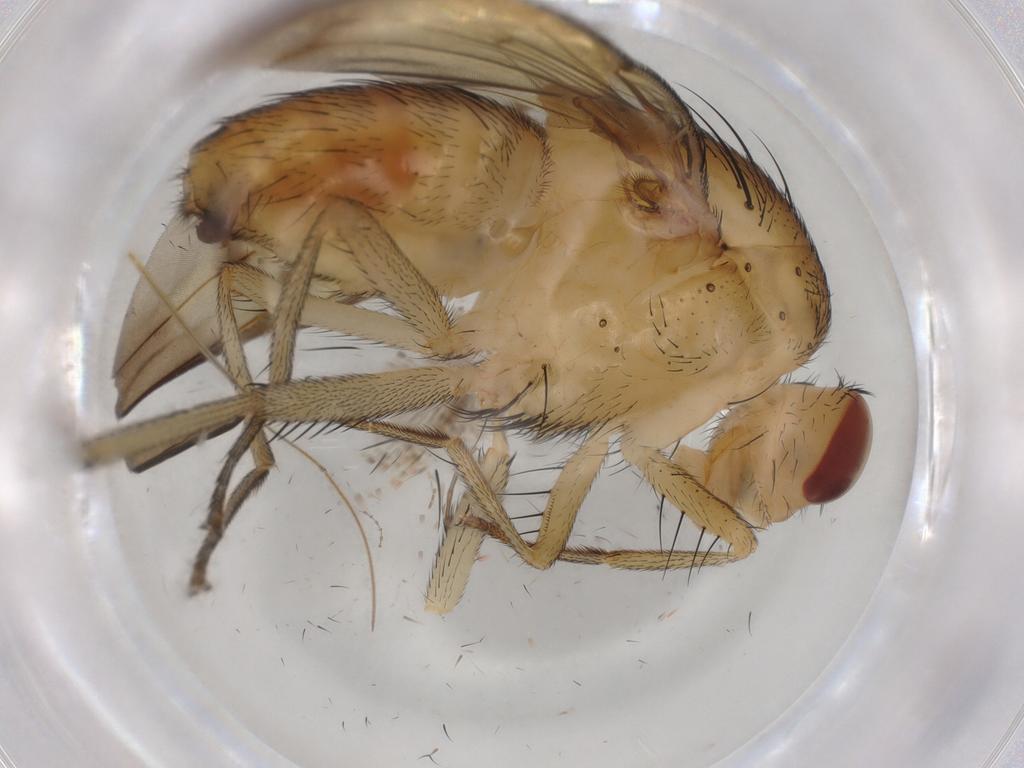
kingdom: Animalia
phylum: Arthropoda
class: Insecta
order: Diptera
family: Lauxaniidae
